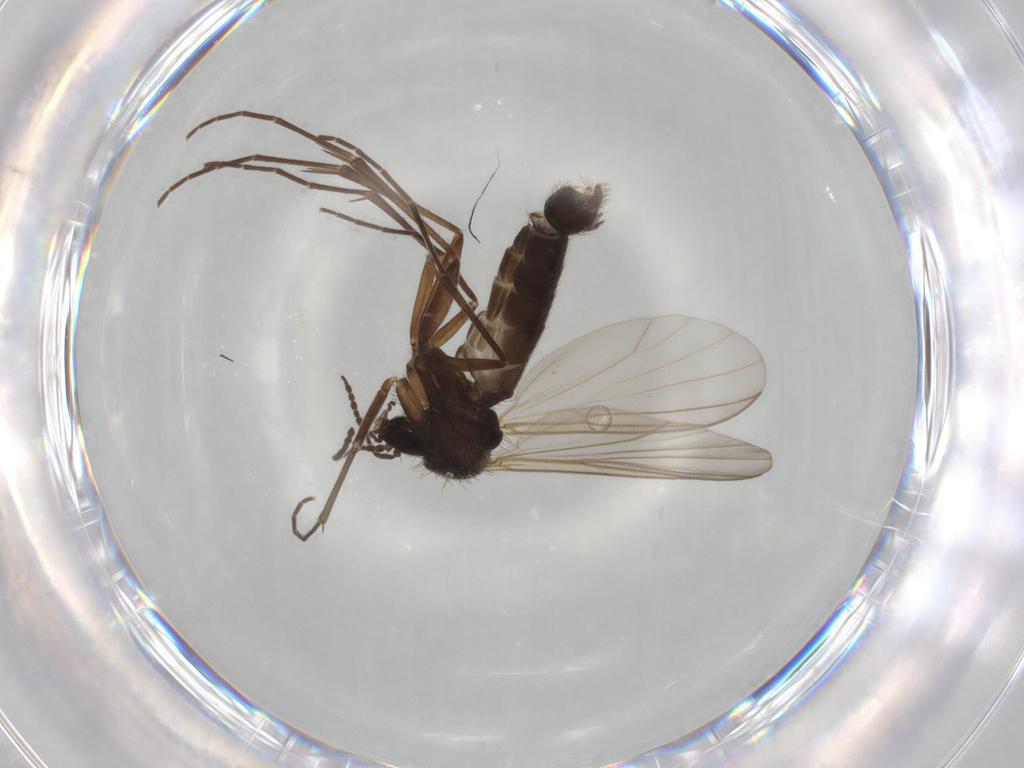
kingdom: Animalia
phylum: Arthropoda
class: Insecta
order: Diptera
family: Mycetophilidae
